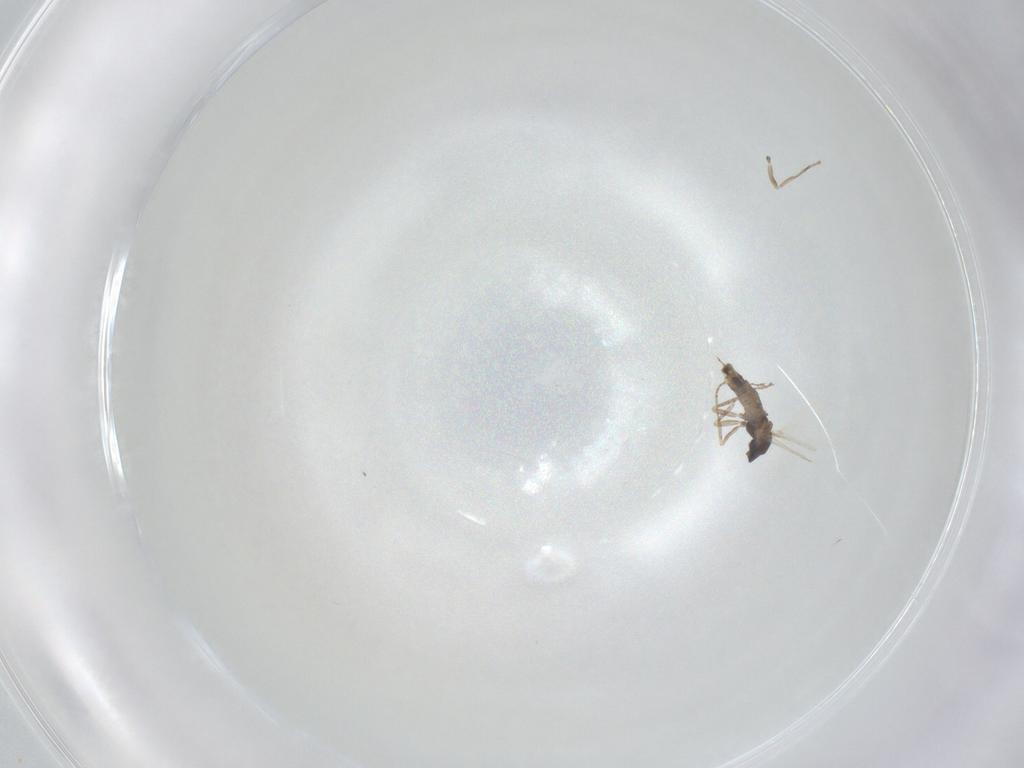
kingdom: Animalia
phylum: Arthropoda
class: Insecta
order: Diptera
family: Cecidomyiidae
